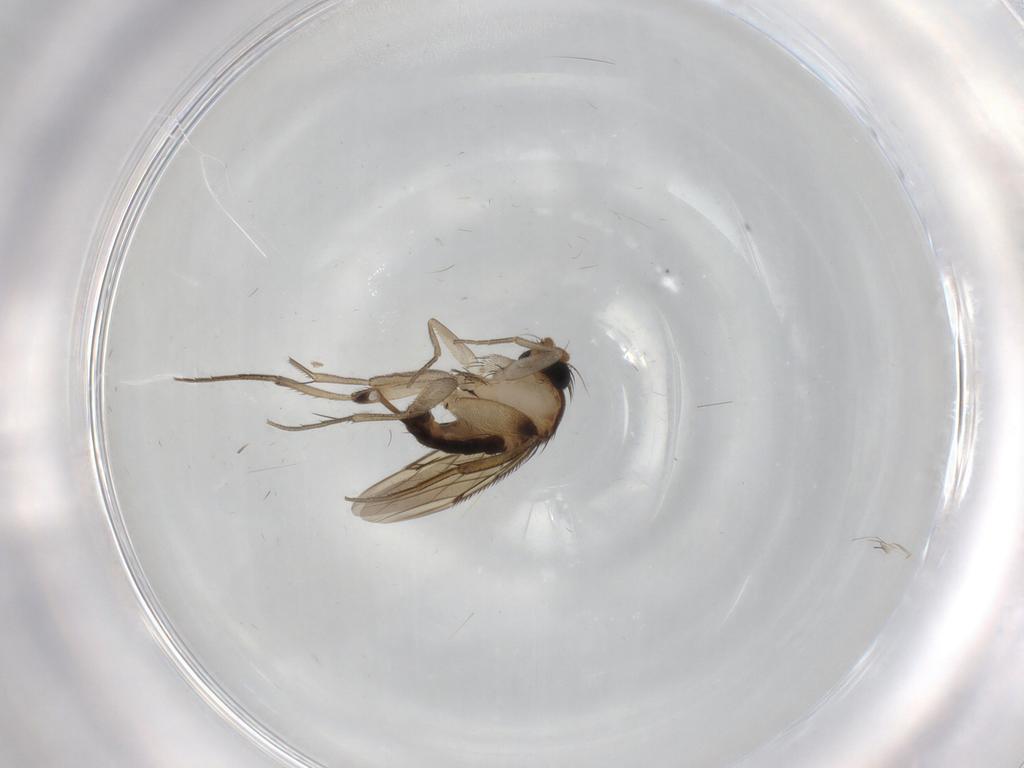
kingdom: Animalia
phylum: Arthropoda
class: Insecta
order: Diptera
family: Phoridae
